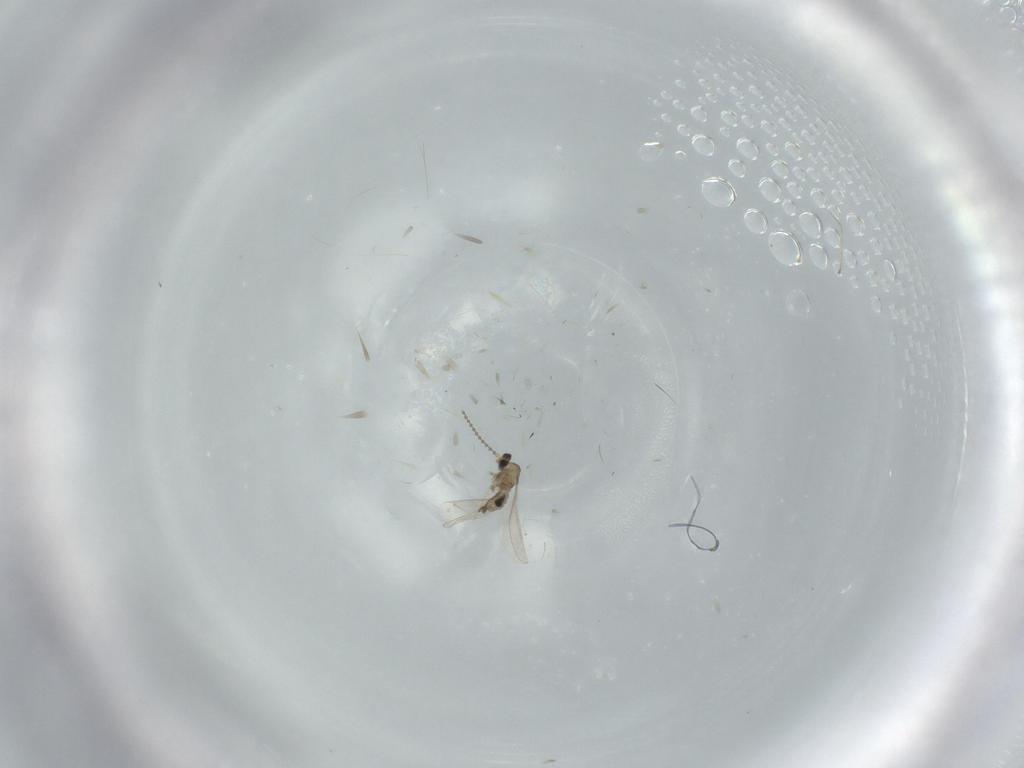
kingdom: Animalia
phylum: Arthropoda
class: Insecta
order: Diptera
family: Cecidomyiidae
